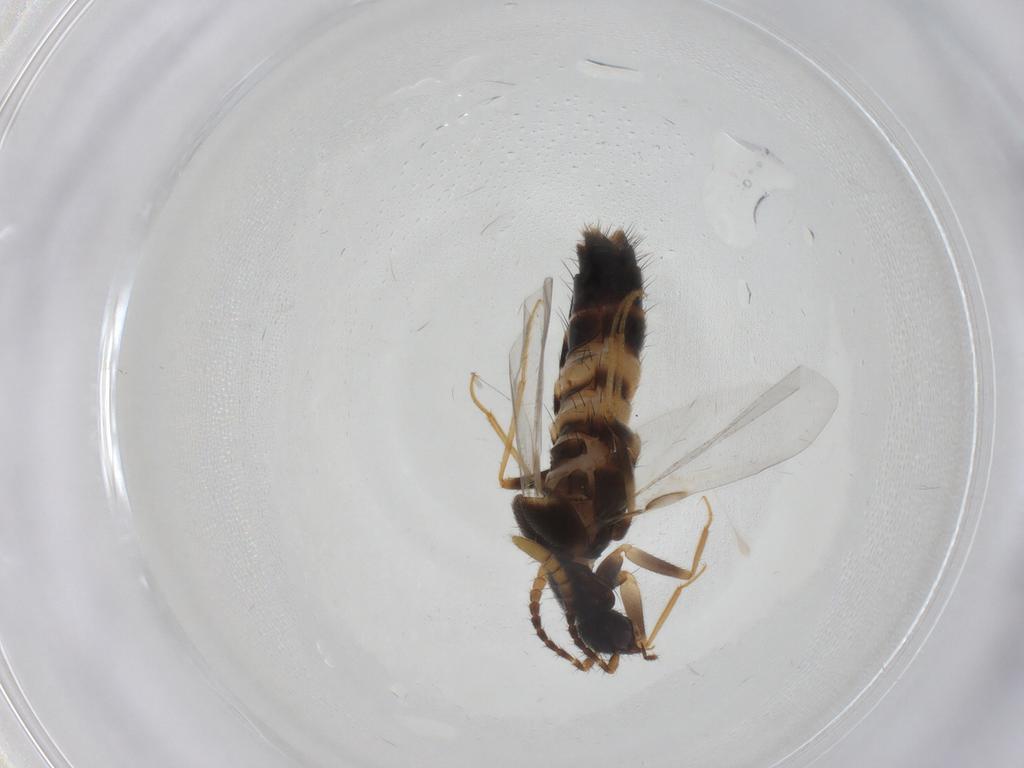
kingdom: Animalia
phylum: Arthropoda
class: Insecta
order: Coleoptera
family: Staphylinidae
